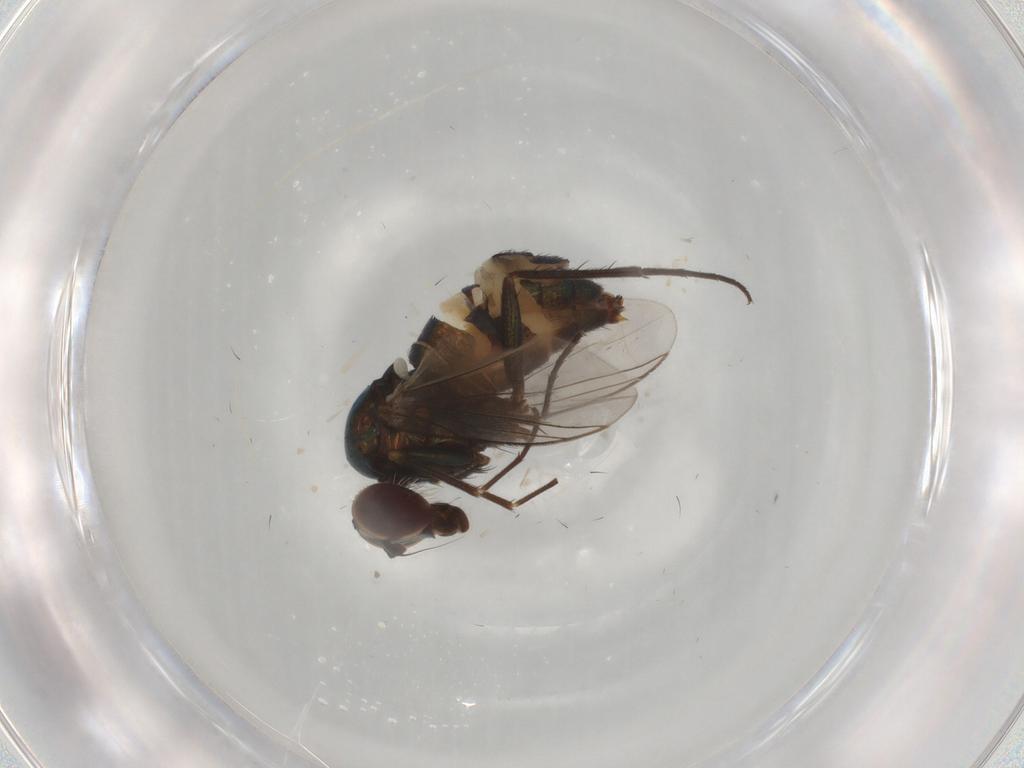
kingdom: Animalia
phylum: Arthropoda
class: Insecta
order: Diptera
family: Dolichopodidae
